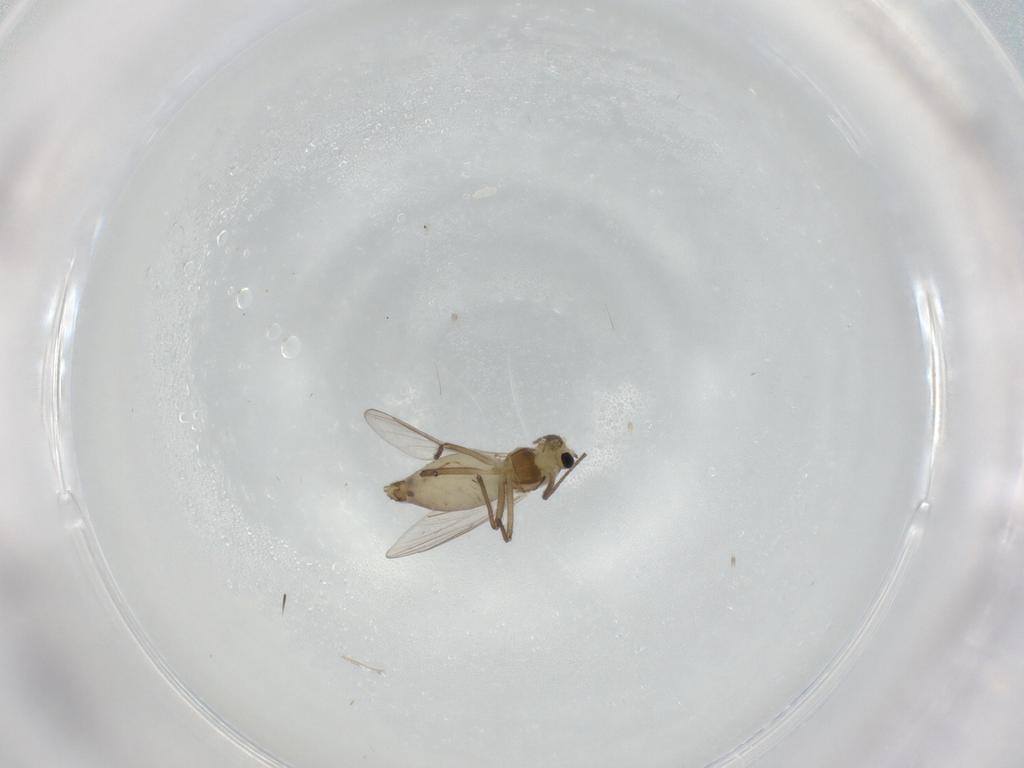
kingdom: Animalia
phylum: Arthropoda
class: Insecta
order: Diptera
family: Chironomidae
